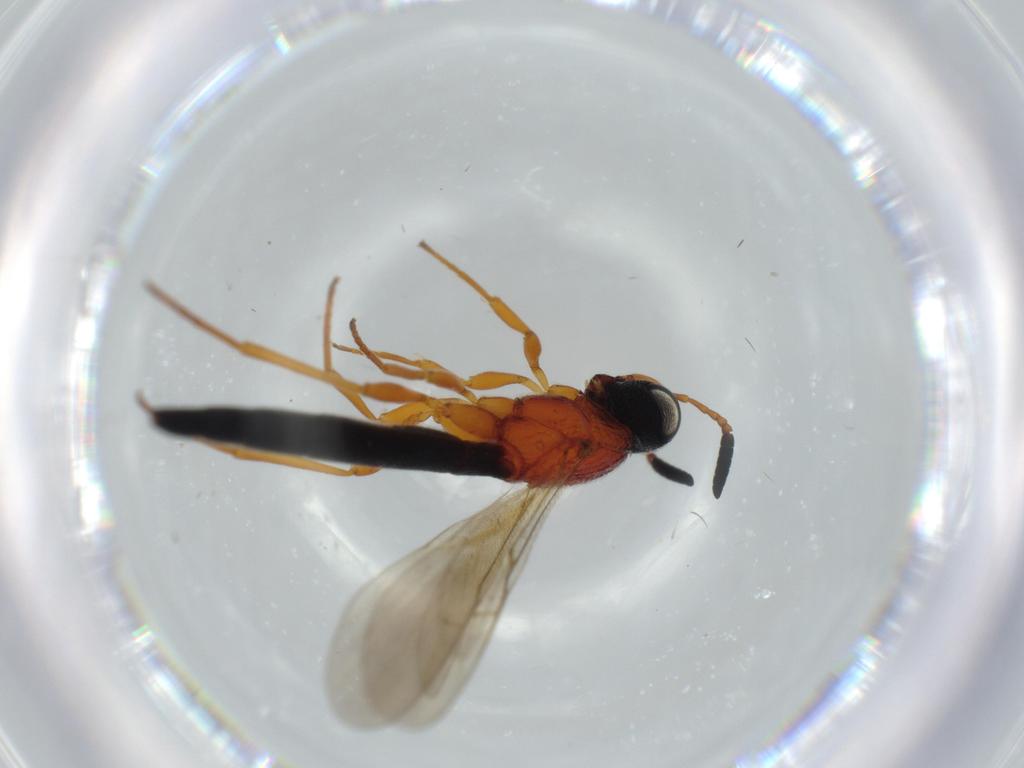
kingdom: Animalia
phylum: Arthropoda
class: Insecta
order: Hymenoptera
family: Scelionidae
